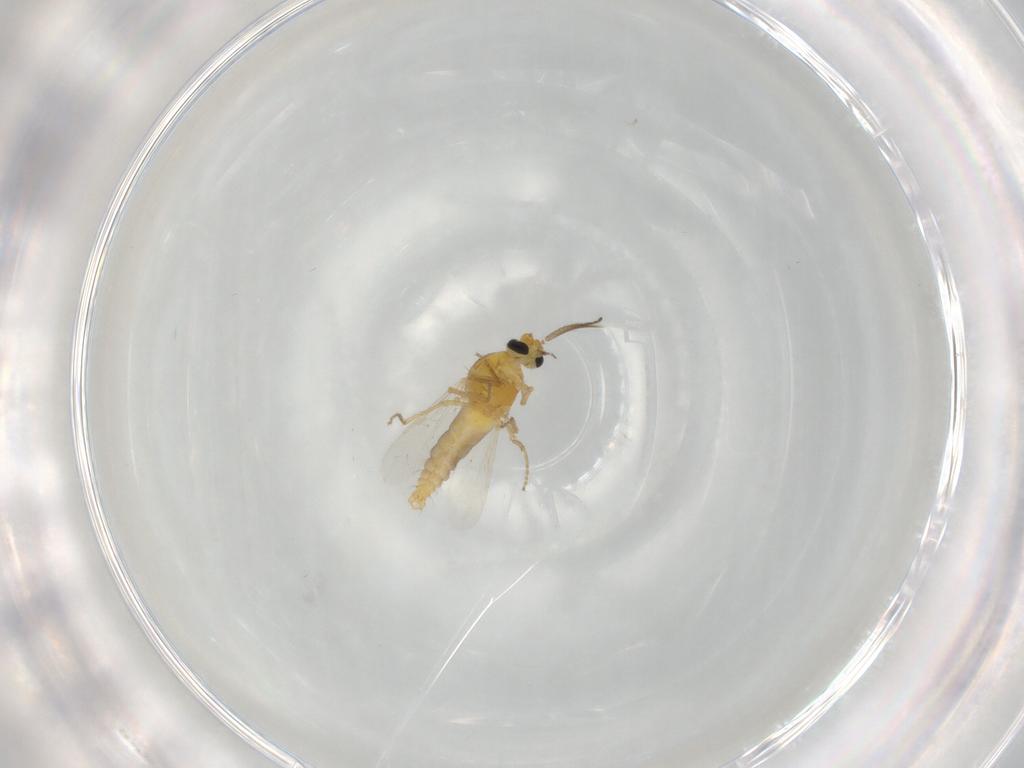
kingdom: Animalia
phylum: Arthropoda
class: Insecta
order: Diptera
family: Ceratopogonidae
